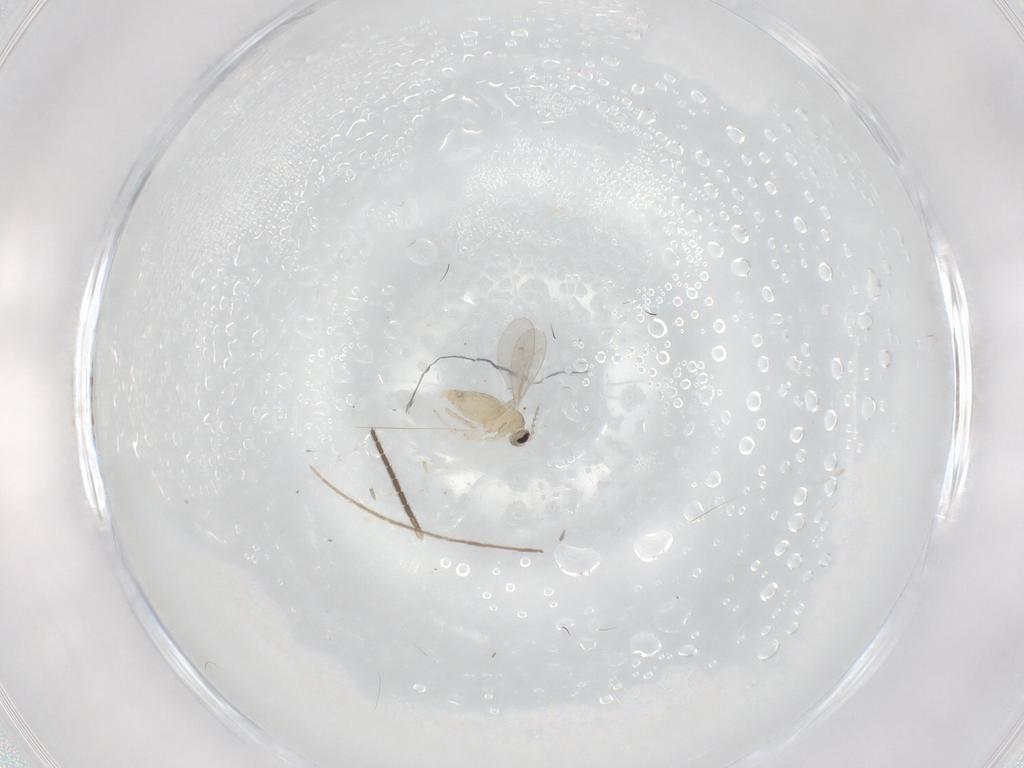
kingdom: Animalia
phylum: Arthropoda
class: Insecta
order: Diptera
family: Cecidomyiidae
